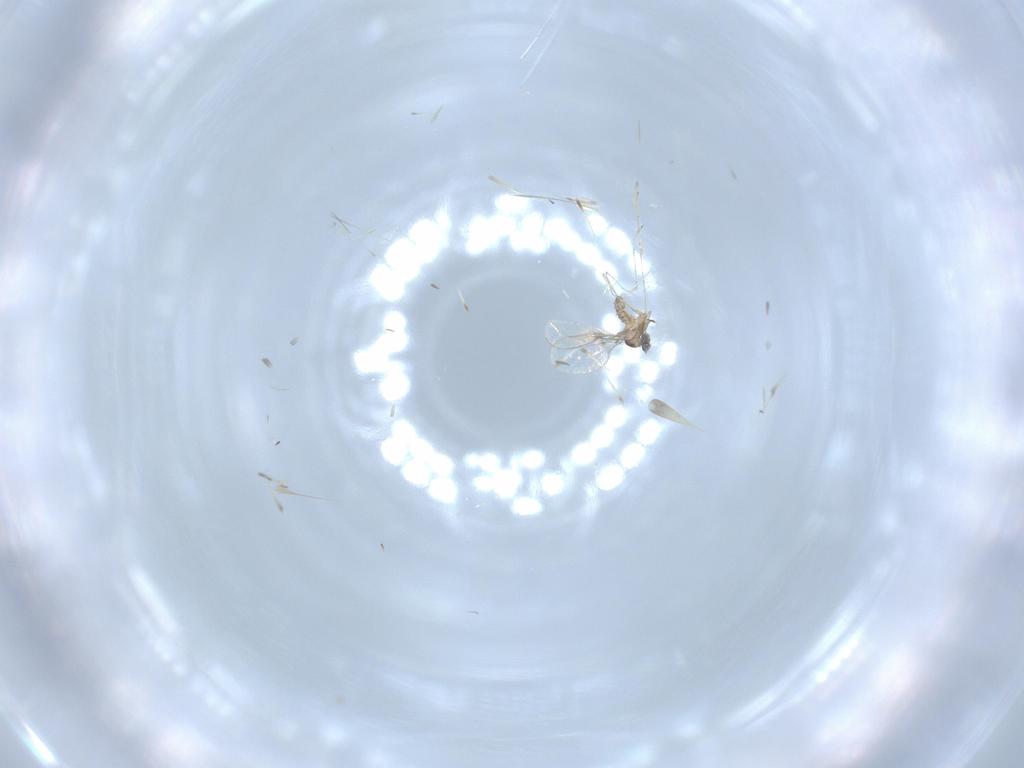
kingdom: Animalia
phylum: Arthropoda
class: Insecta
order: Diptera
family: Cecidomyiidae
